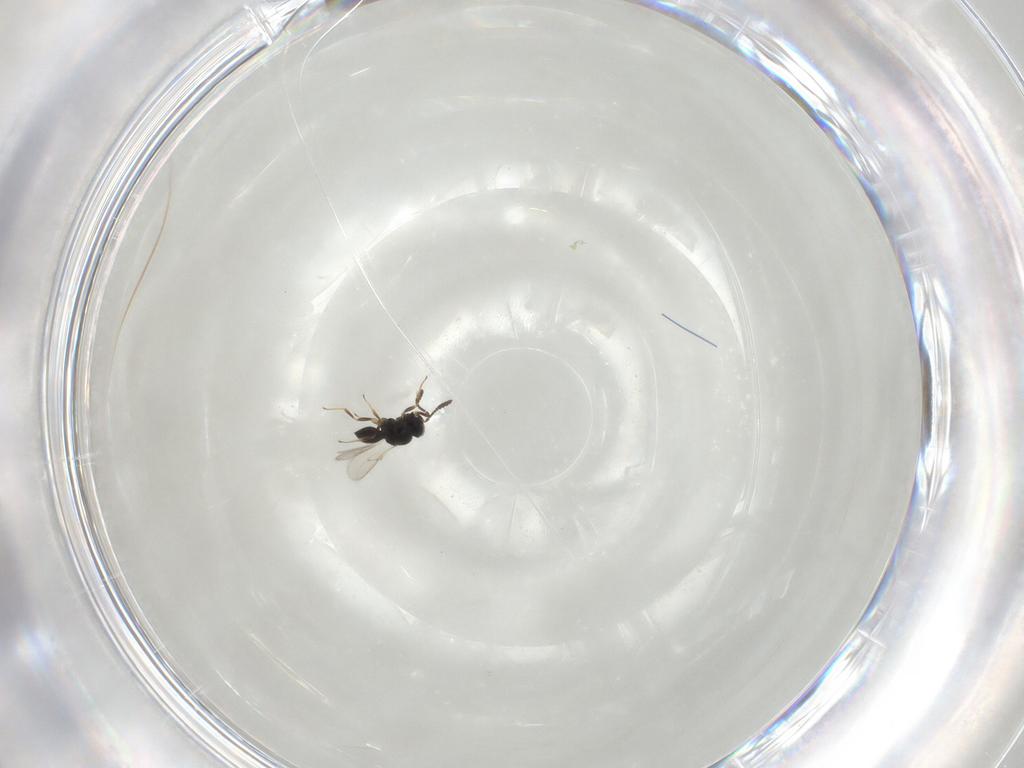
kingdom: Animalia
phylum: Arthropoda
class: Insecta
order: Hymenoptera
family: Scelionidae
